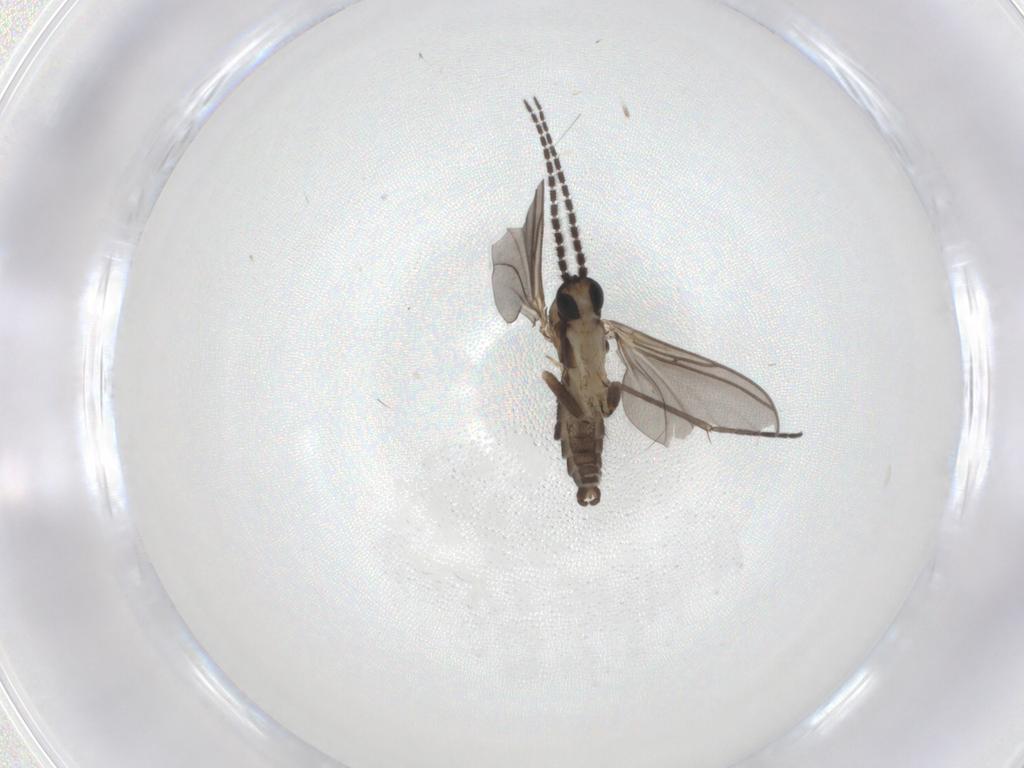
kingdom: Animalia
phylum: Arthropoda
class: Insecta
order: Diptera
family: Sciaridae
